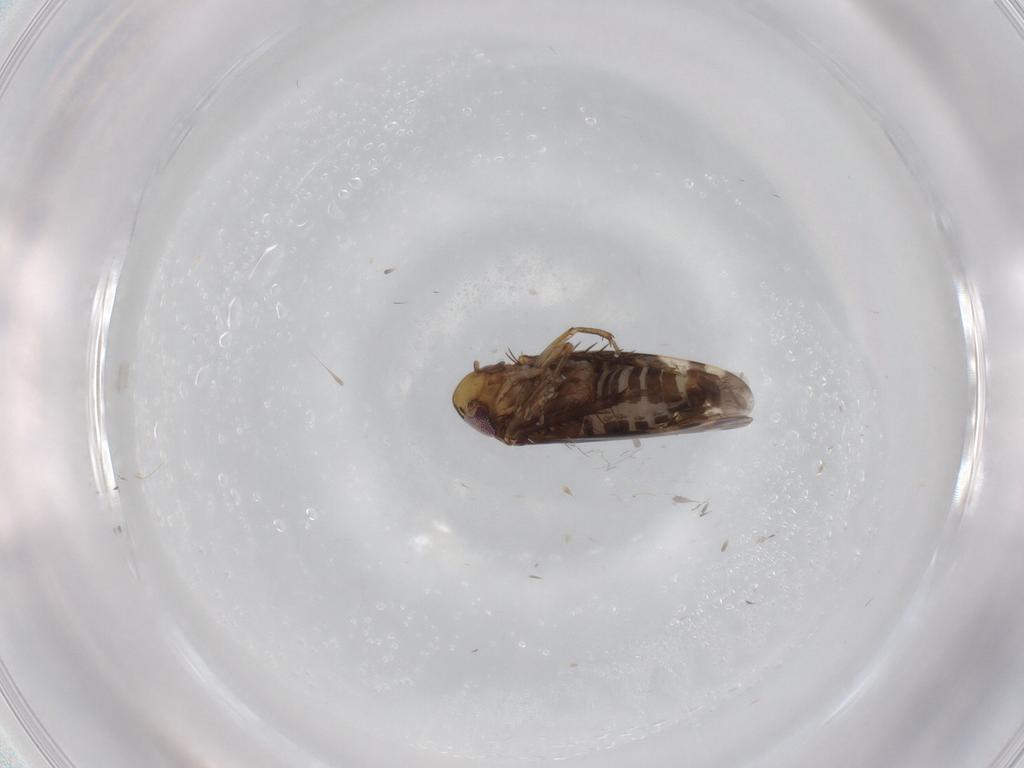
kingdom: Animalia
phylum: Arthropoda
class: Insecta
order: Hemiptera
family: Cicadellidae
